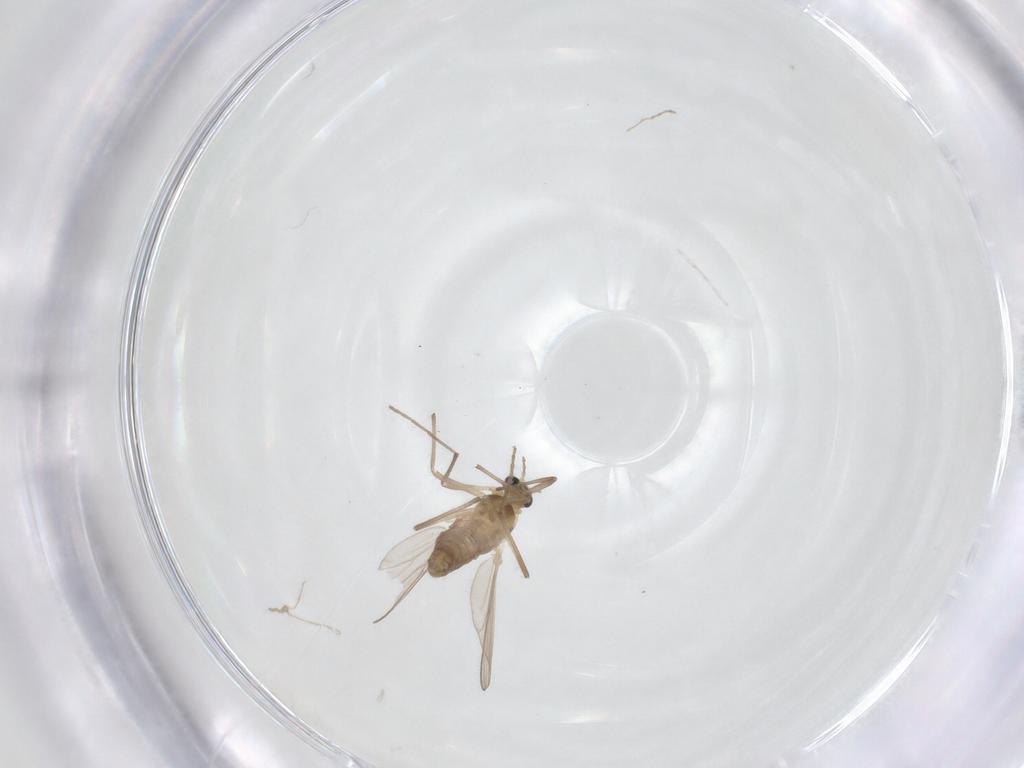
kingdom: Animalia
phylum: Arthropoda
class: Insecta
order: Diptera
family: Chironomidae
